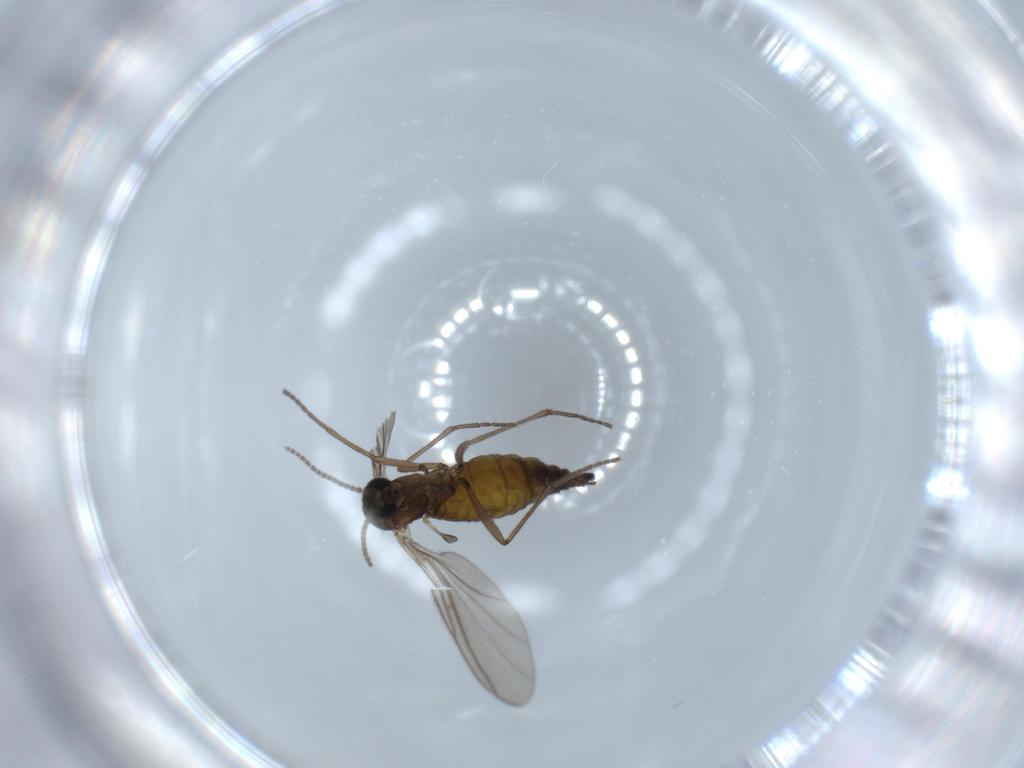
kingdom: Animalia
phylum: Arthropoda
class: Insecta
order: Diptera
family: Sciaridae
